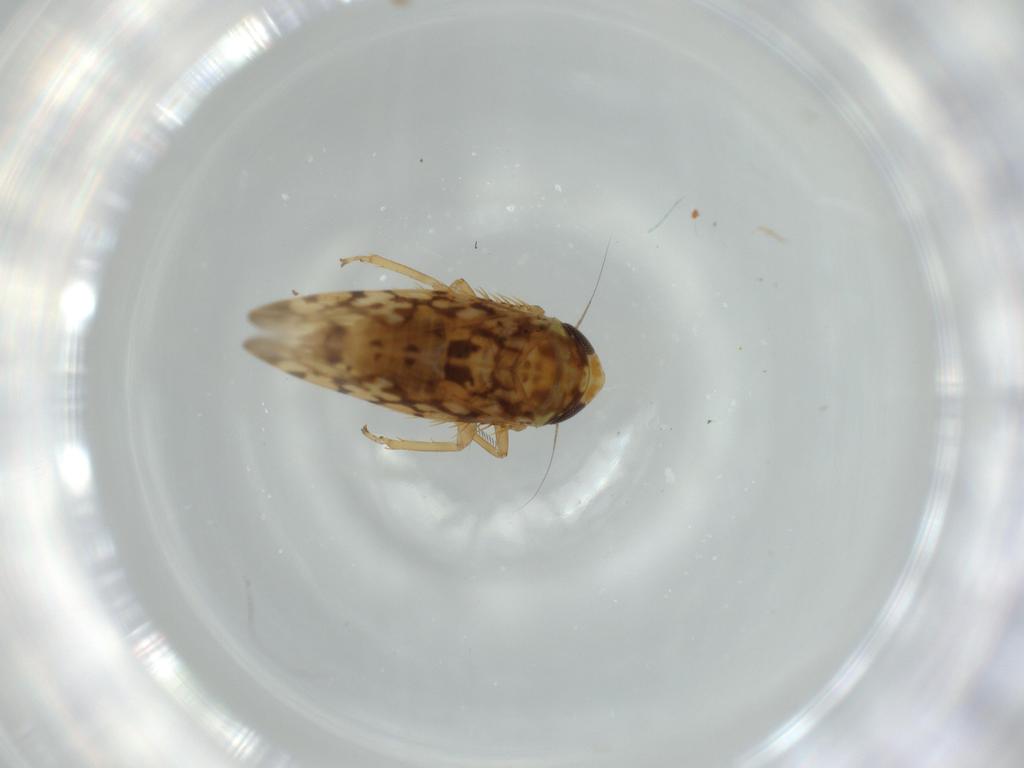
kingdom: Animalia
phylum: Arthropoda
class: Insecta
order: Hemiptera
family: Cicadellidae
